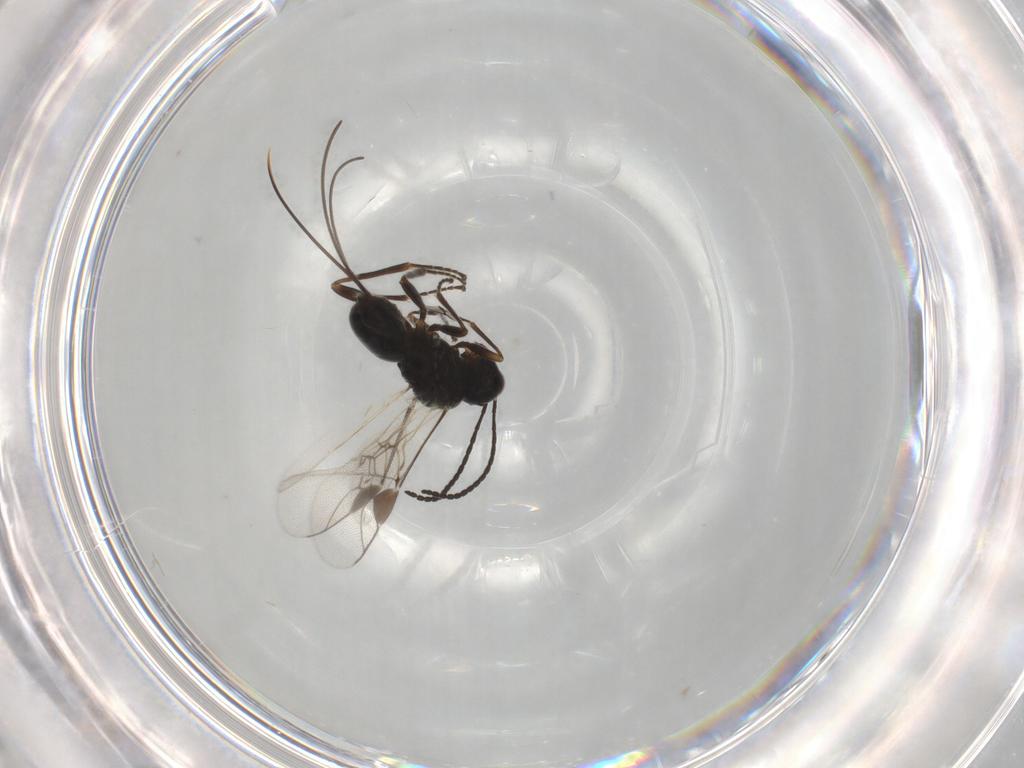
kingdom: Animalia
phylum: Arthropoda
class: Insecta
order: Hymenoptera
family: Braconidae
